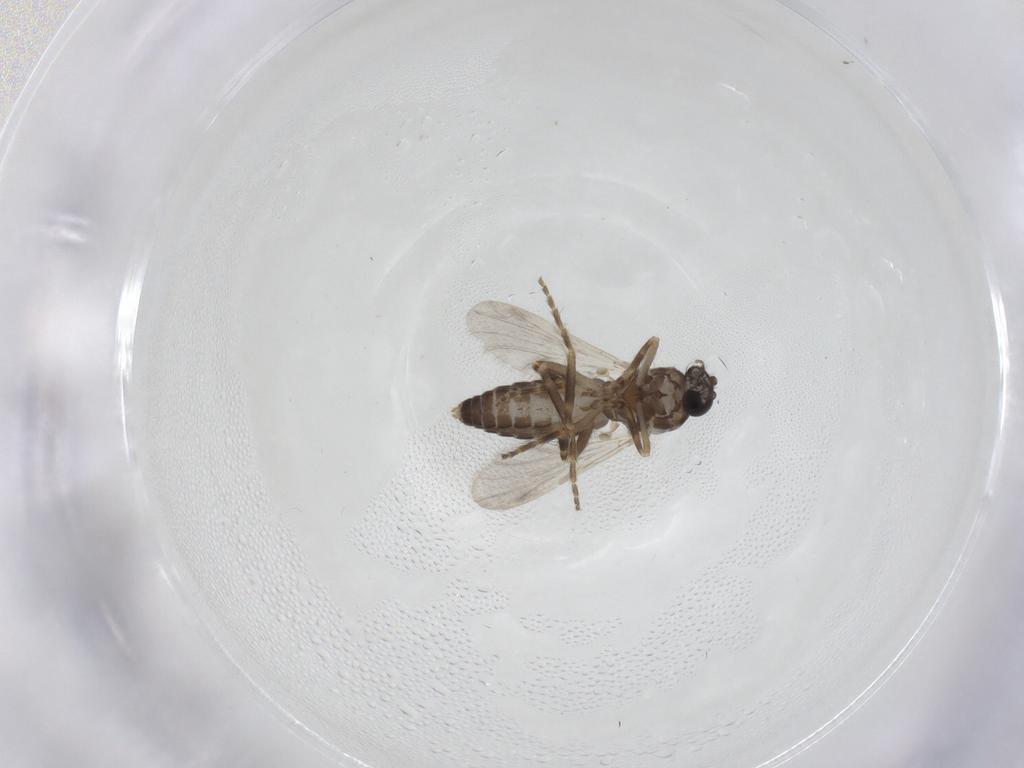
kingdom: Animalia
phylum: Arthropoda
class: Insecta
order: Diptera
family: Ceratopogonidae
